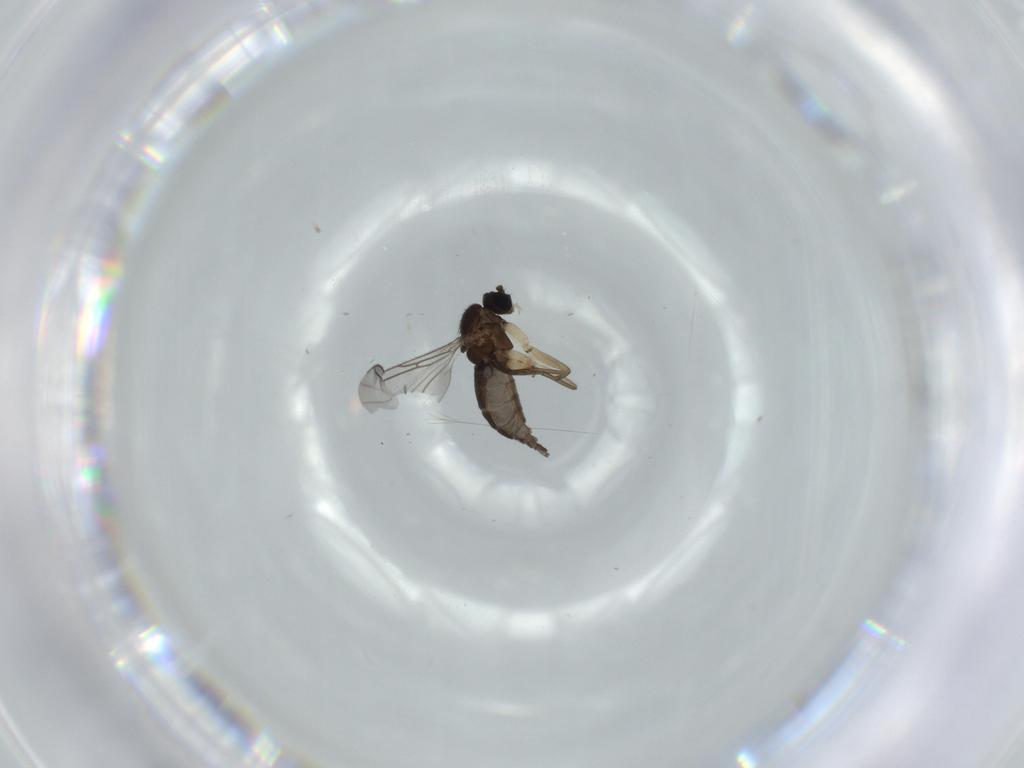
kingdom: Animalia
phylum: Arthropoda
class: Insecta
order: Diptera
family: Sciaridae
